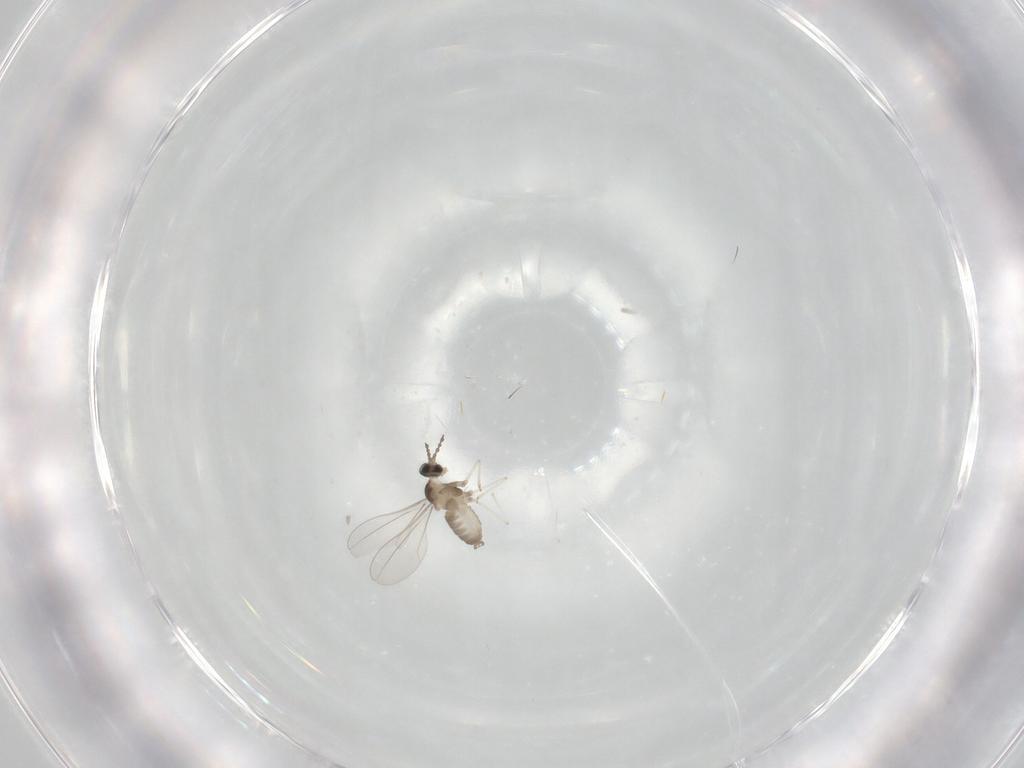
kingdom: Animalia
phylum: Arthropoda
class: Insecta
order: Diptera
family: Cecidomyiidae
